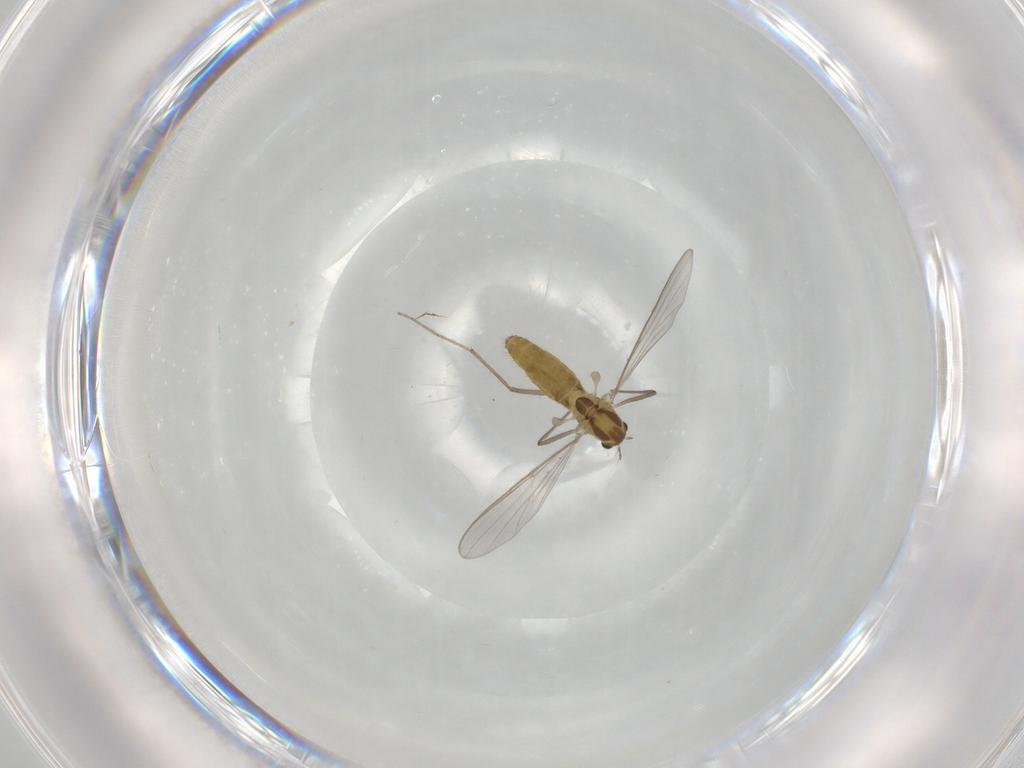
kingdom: Animalia
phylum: Arthropoda
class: Insecta
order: Diptera
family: Chironomidae
